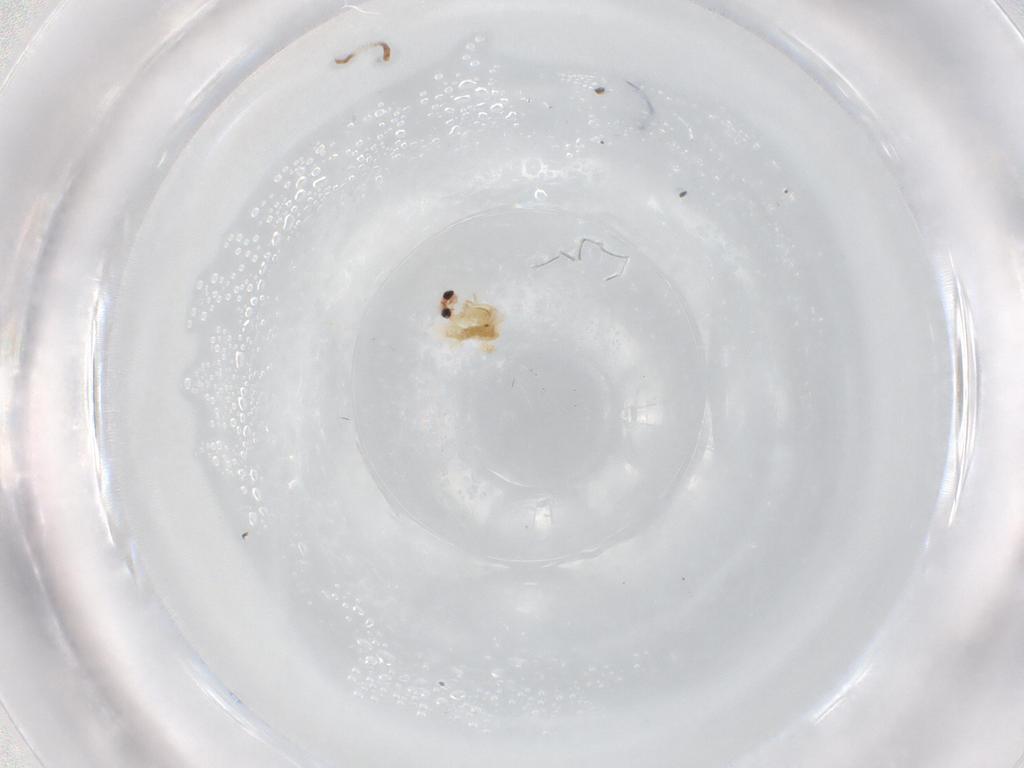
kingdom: Animalia
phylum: Arthropoda
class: Insecta
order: Diptera
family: Chironomidae
